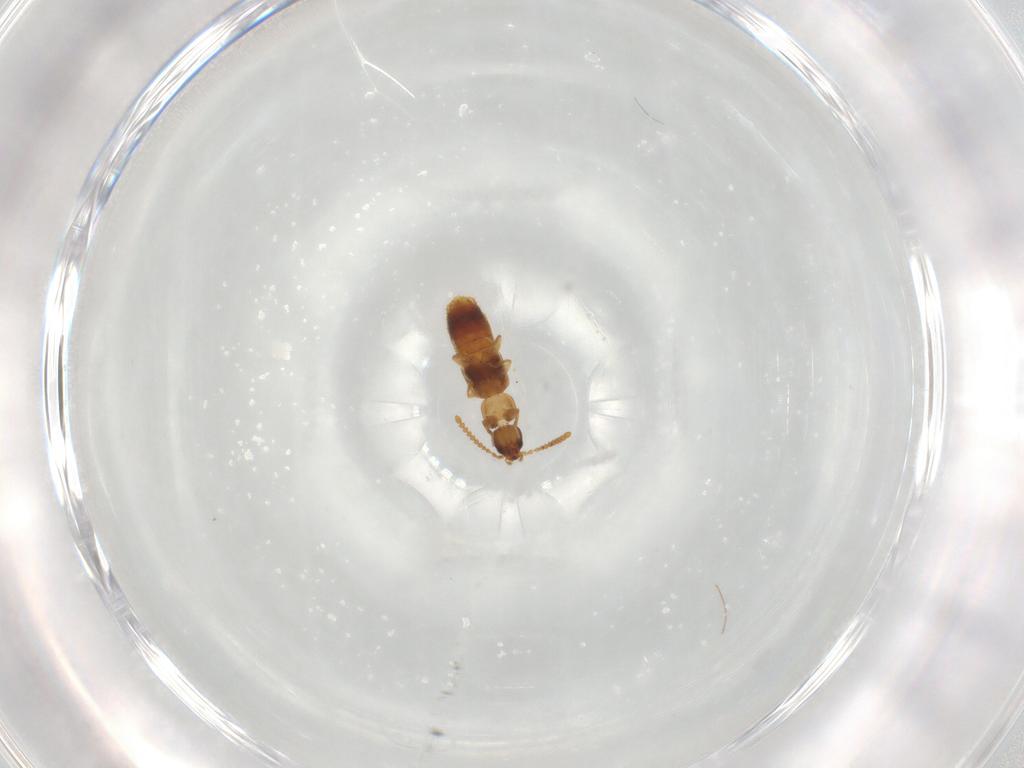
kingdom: Animalia
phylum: Arthropoda
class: Insecta
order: Coleoptera
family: Staphylinidae
